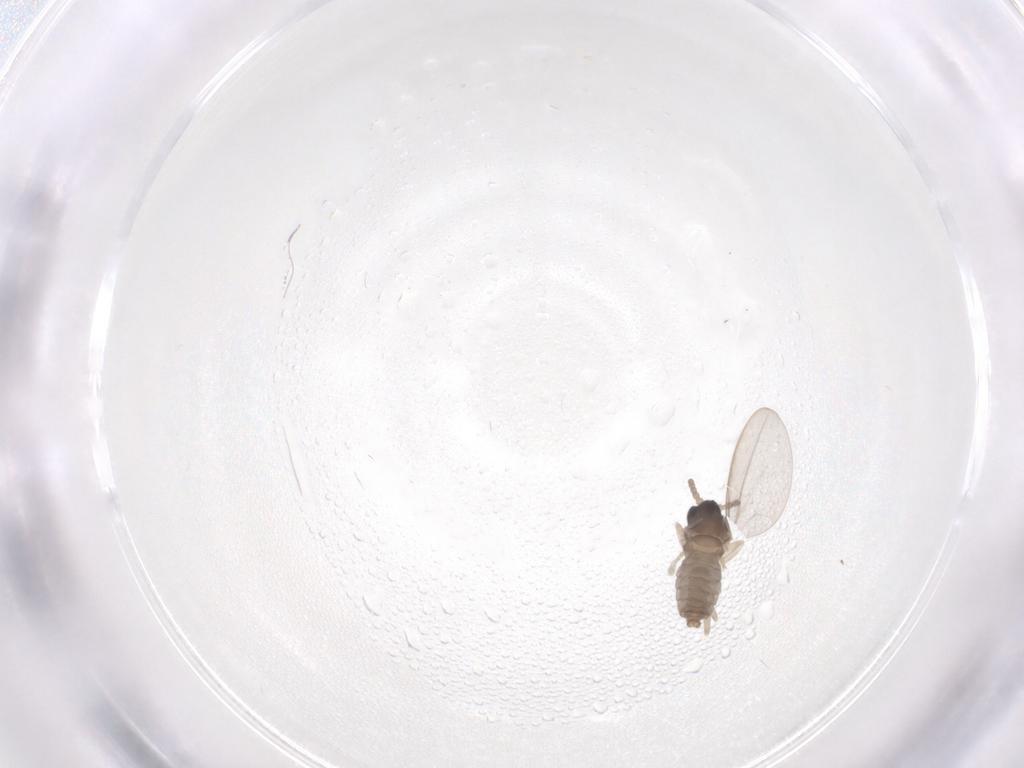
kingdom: Animalia
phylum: Arthropoda
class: Insecta
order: Diptera
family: Cecidomyiidae
